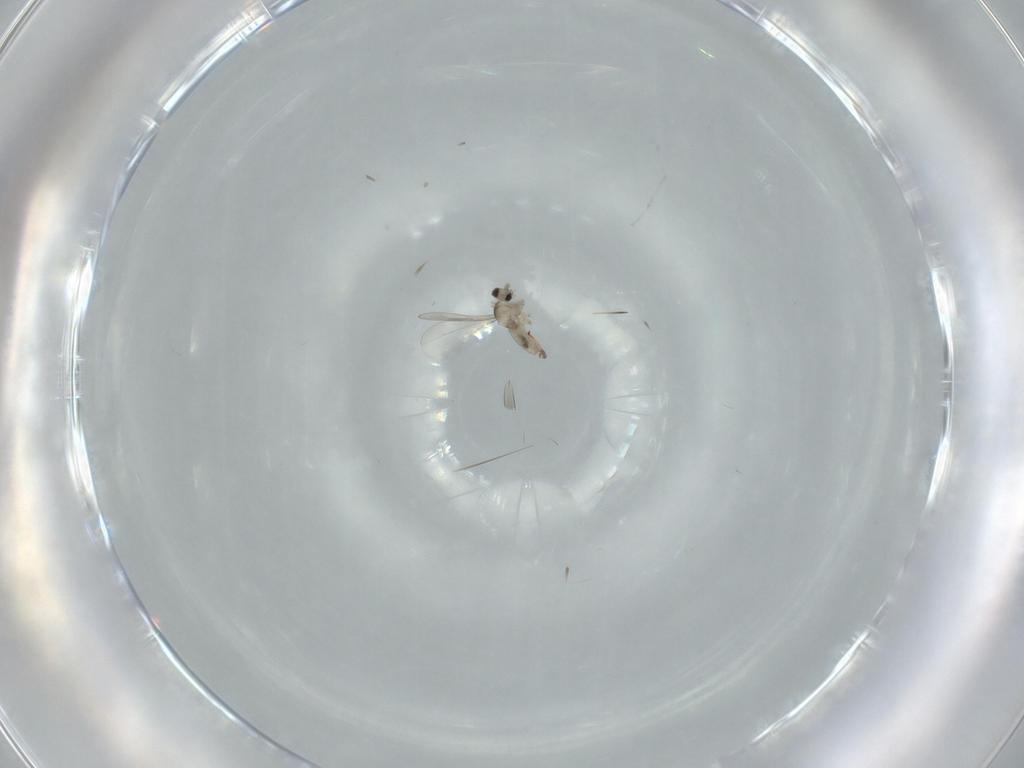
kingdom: Animalia
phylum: Arthropoda
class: Insecta
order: Diptera
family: Cecidomyiidae
